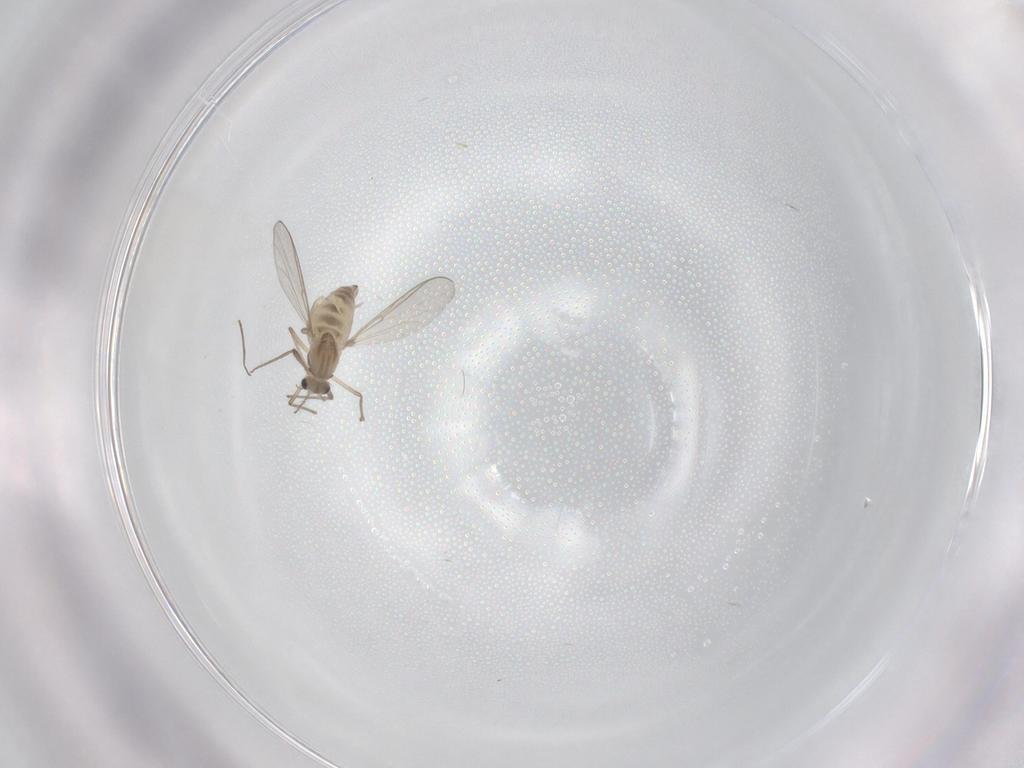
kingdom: Animalia
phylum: Arthropoda
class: Insecta
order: Diptera
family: Chironomidae
